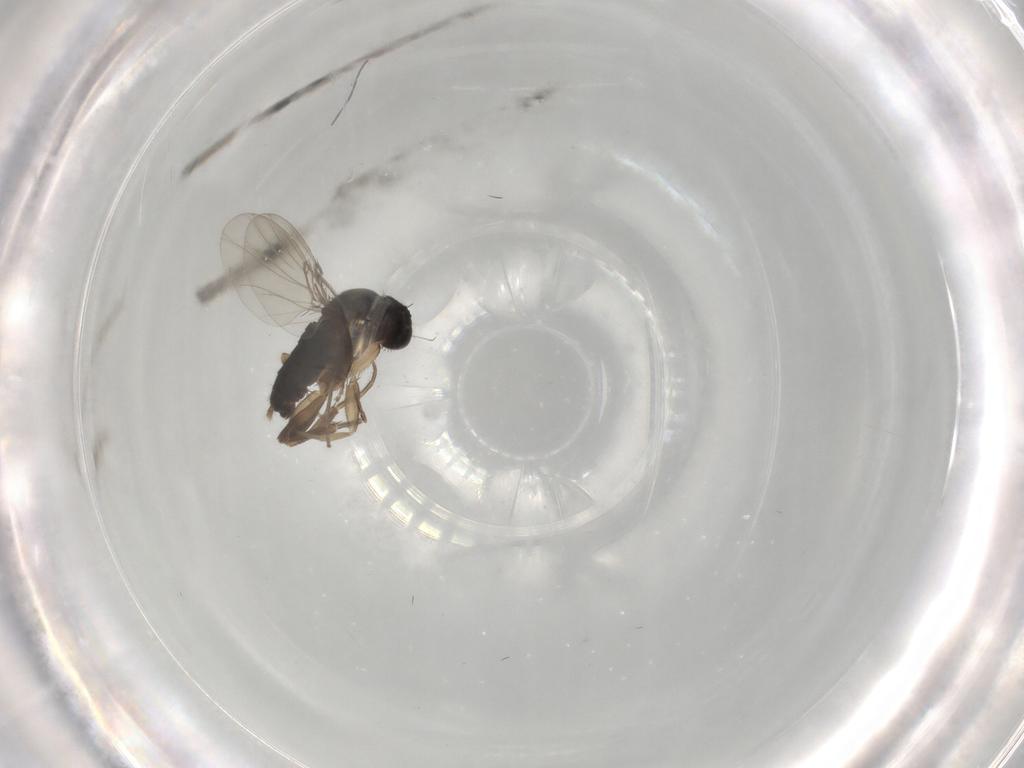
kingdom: Animalia
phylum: Arthropoda
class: Insecta
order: Diptera
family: Phoridae
